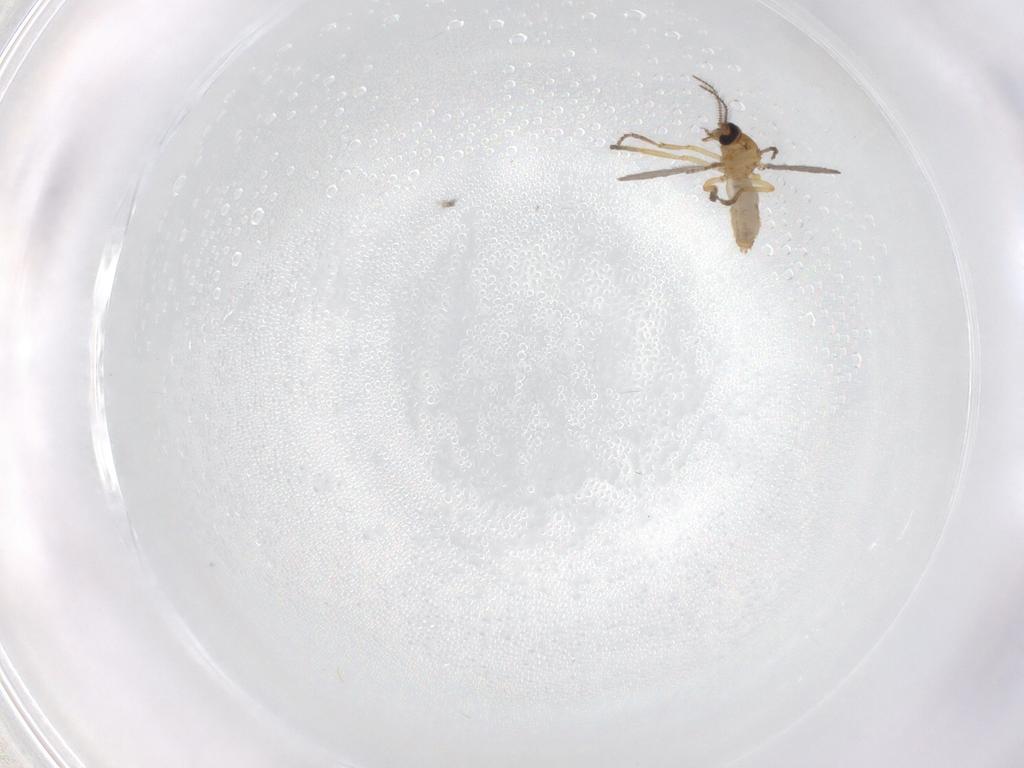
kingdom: Animalia
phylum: Arthropoda
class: Insecta
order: Diptera
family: Ceratopogonidae
